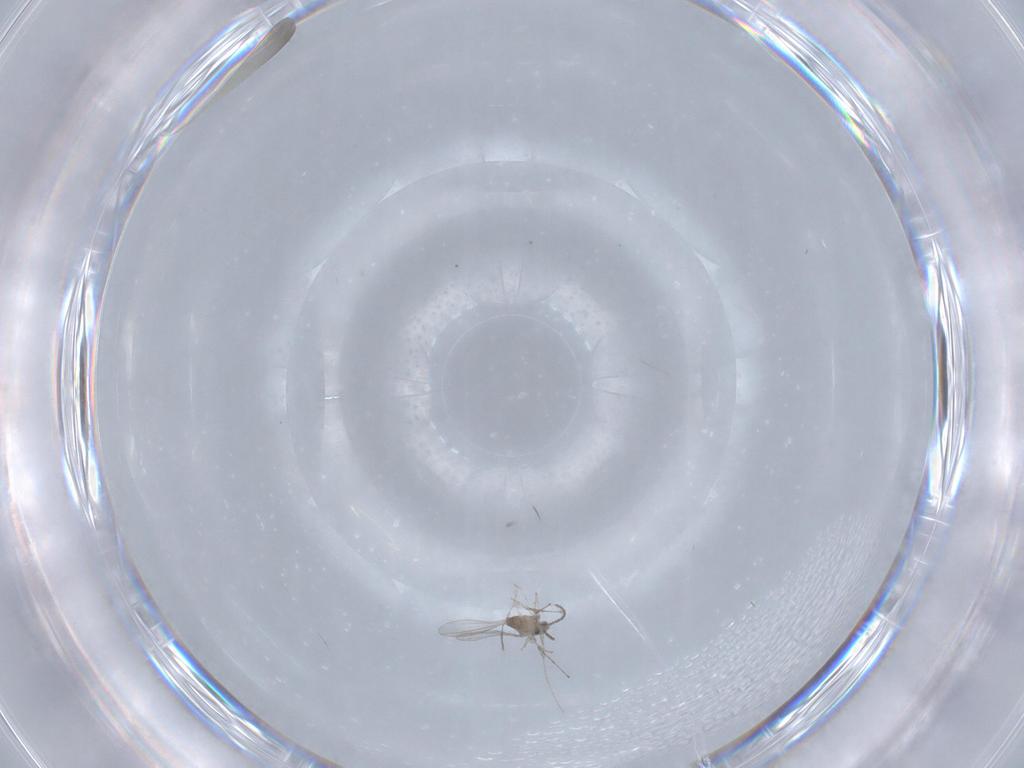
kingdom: Animalia
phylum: Arthropoda
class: Insecta
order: Diptera
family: Cecidomyiidae
